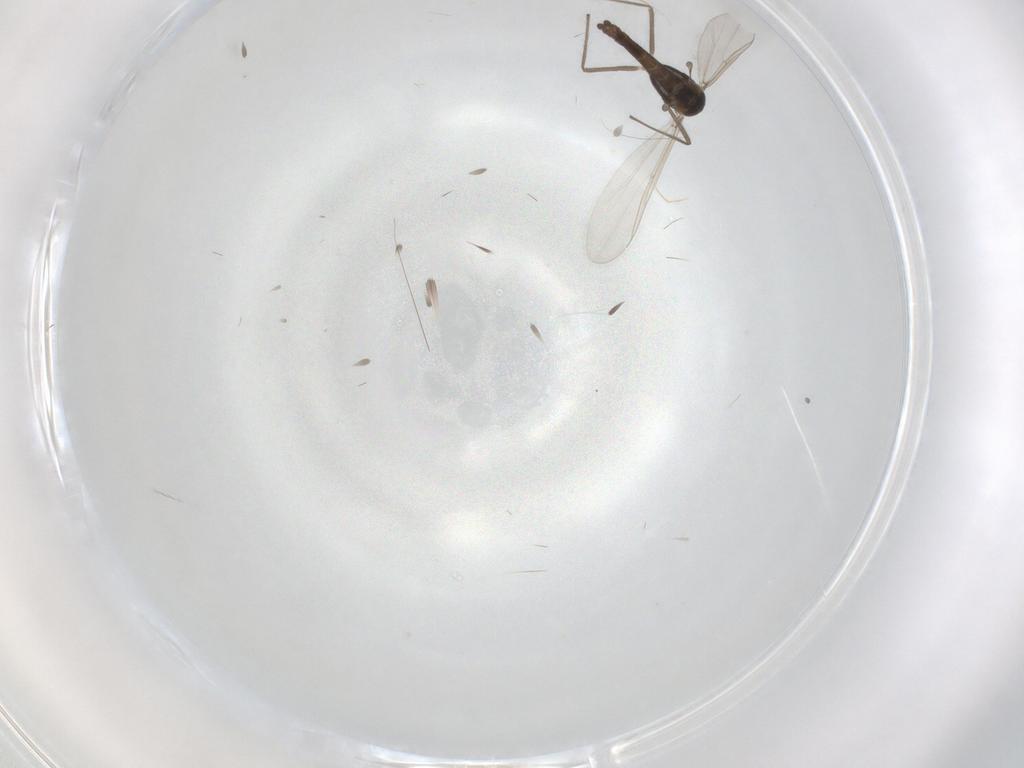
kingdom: Animalia
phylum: Arthropoda
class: Insecta
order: Diptera
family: Chironomidae
